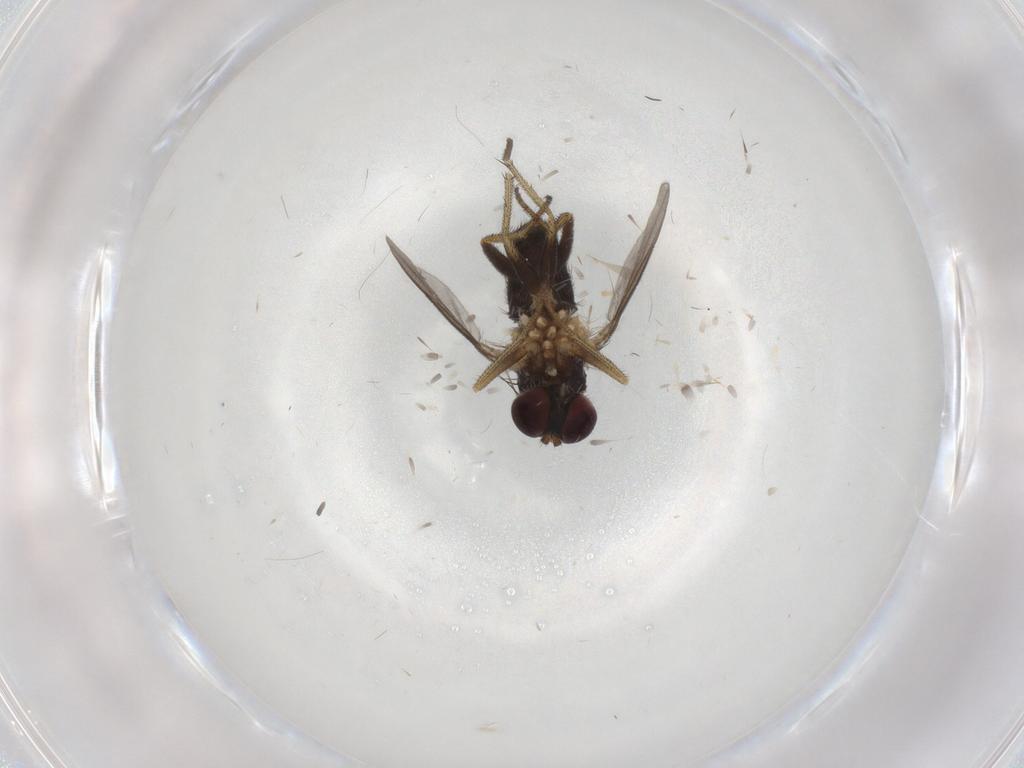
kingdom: Animalia
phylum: Arthropoda
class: Insecta
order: Diptera
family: Dolichopodidae
